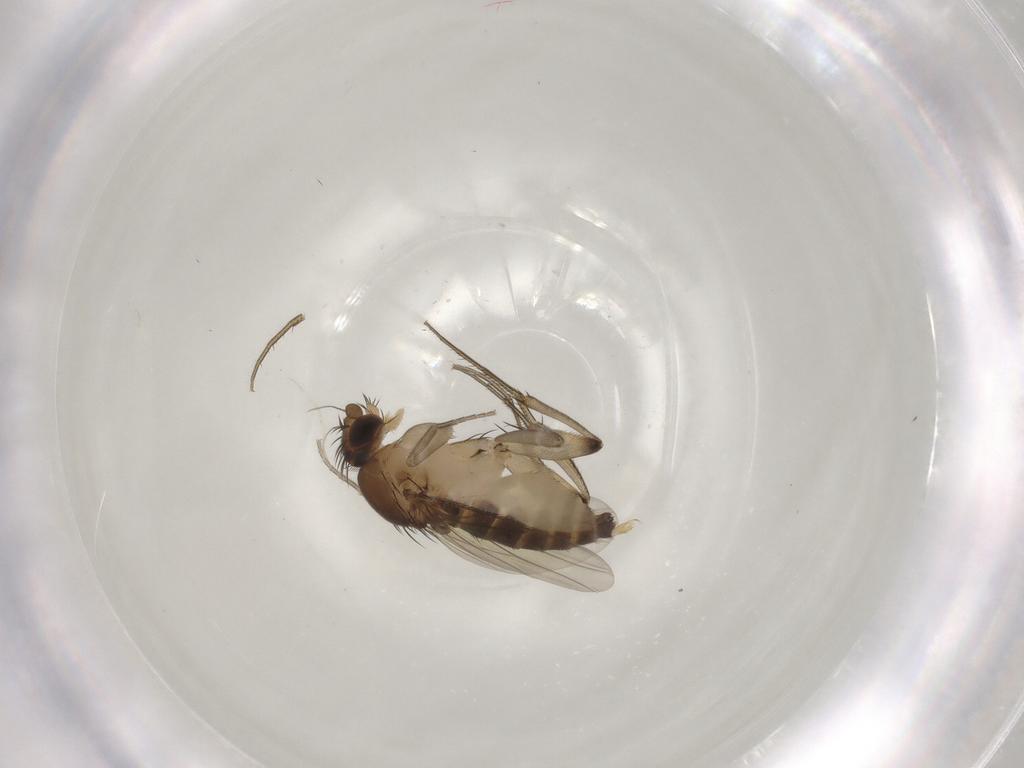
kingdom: Animalia
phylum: Arthropoda
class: Insecta
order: Diptera
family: Phoridae
